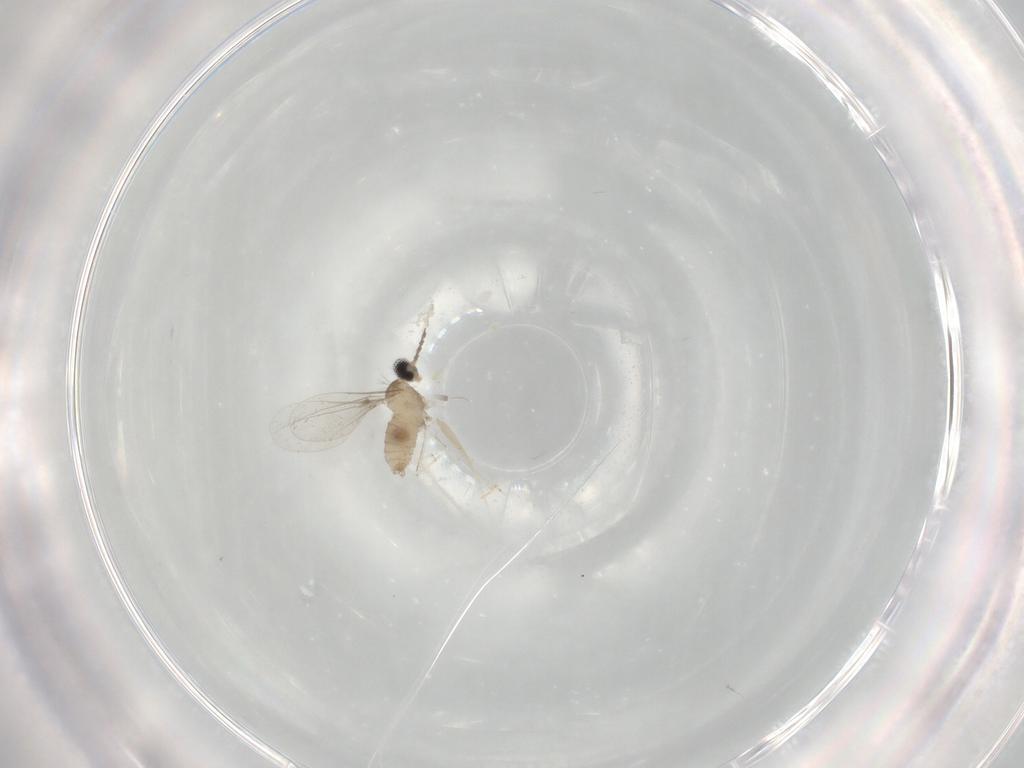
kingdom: Animalia
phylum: Arthropoda
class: Insecta
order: Diptera
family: Cecidomyiidae
